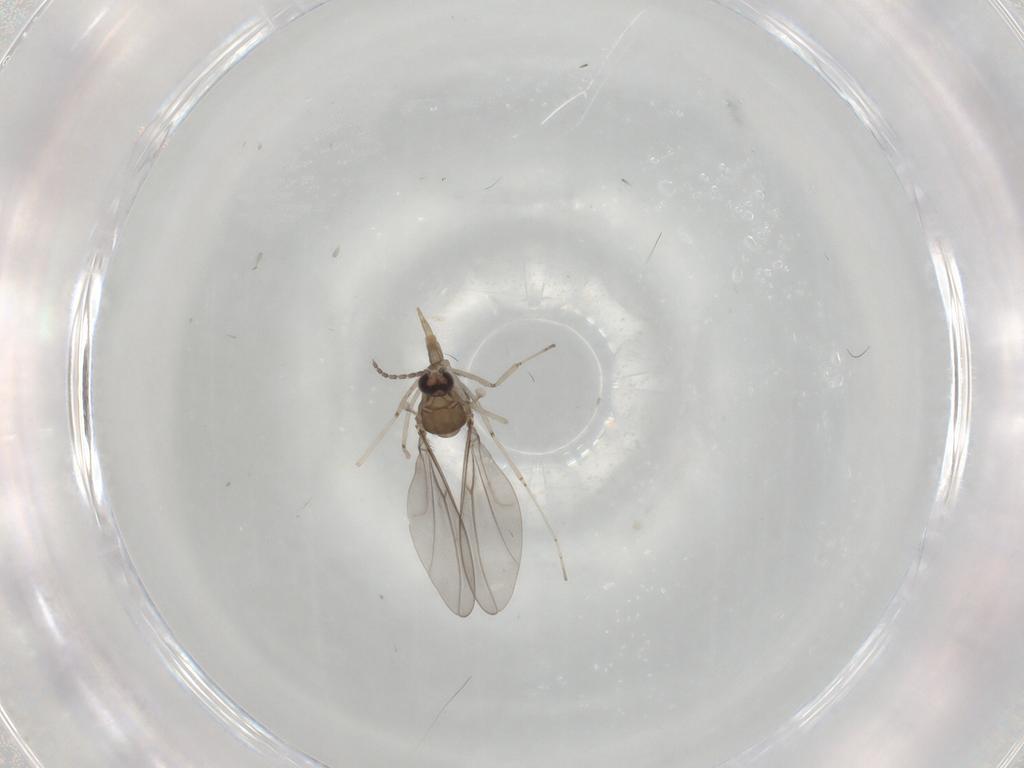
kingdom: Animalia
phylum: Arthropoda
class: Insecta
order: Diptera
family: Cecidomyiidae
